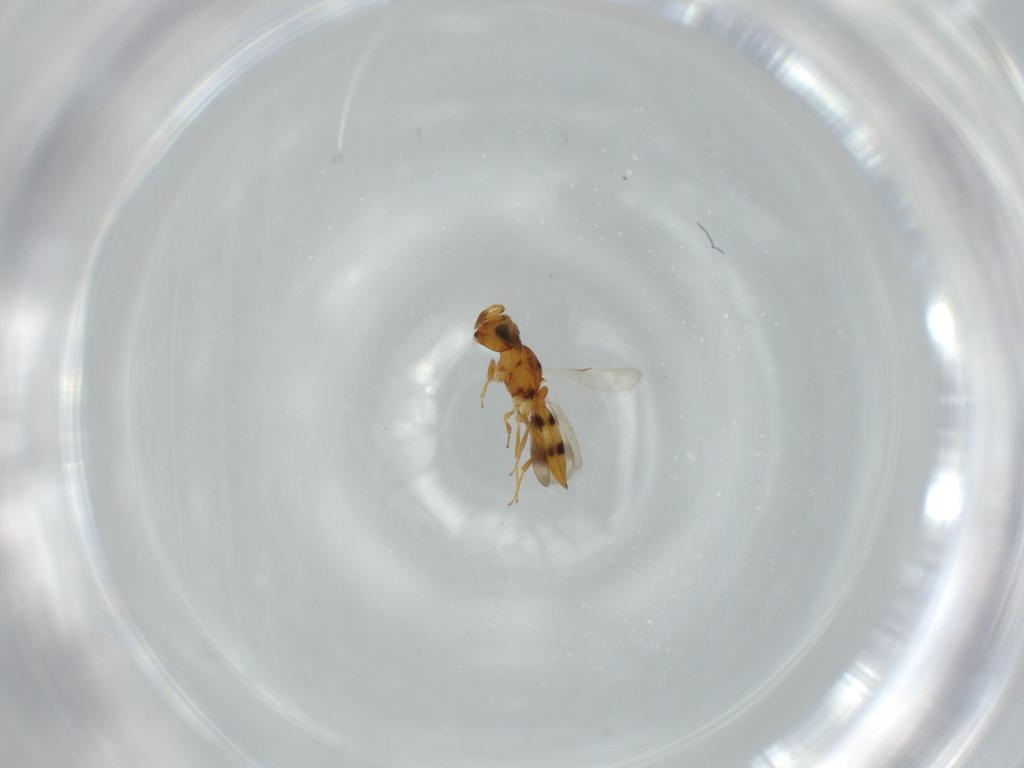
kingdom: Animalia
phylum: Arthropoda
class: Insecta
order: Hymenoptera
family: Scelionidae
